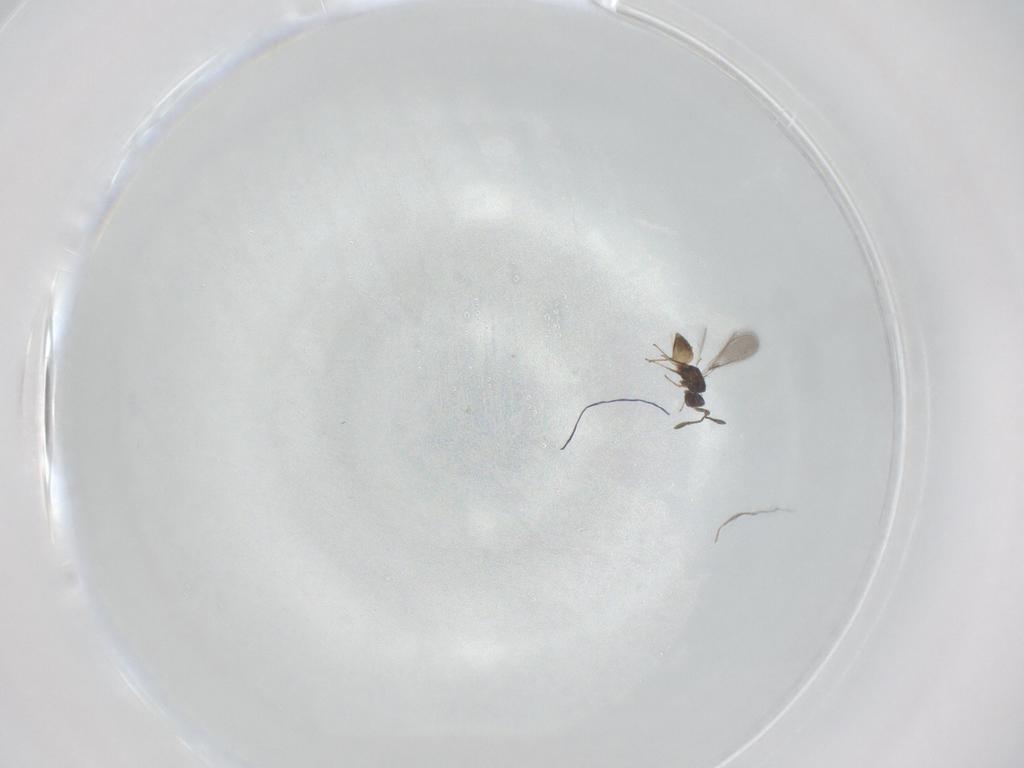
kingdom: Animalia
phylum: Arthropoda
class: Insecta
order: Hymenoptera
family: Mymaridae
